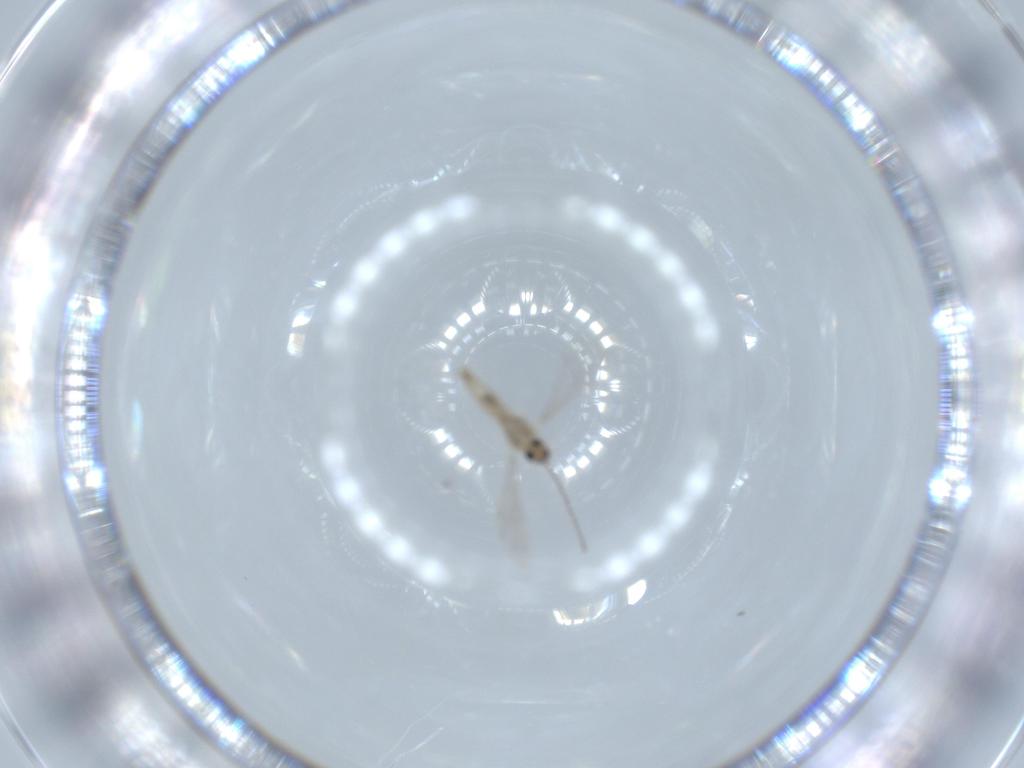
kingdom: Animalia
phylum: Arthropoda
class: Insecta
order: Diptera
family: Cecidomyiidae
